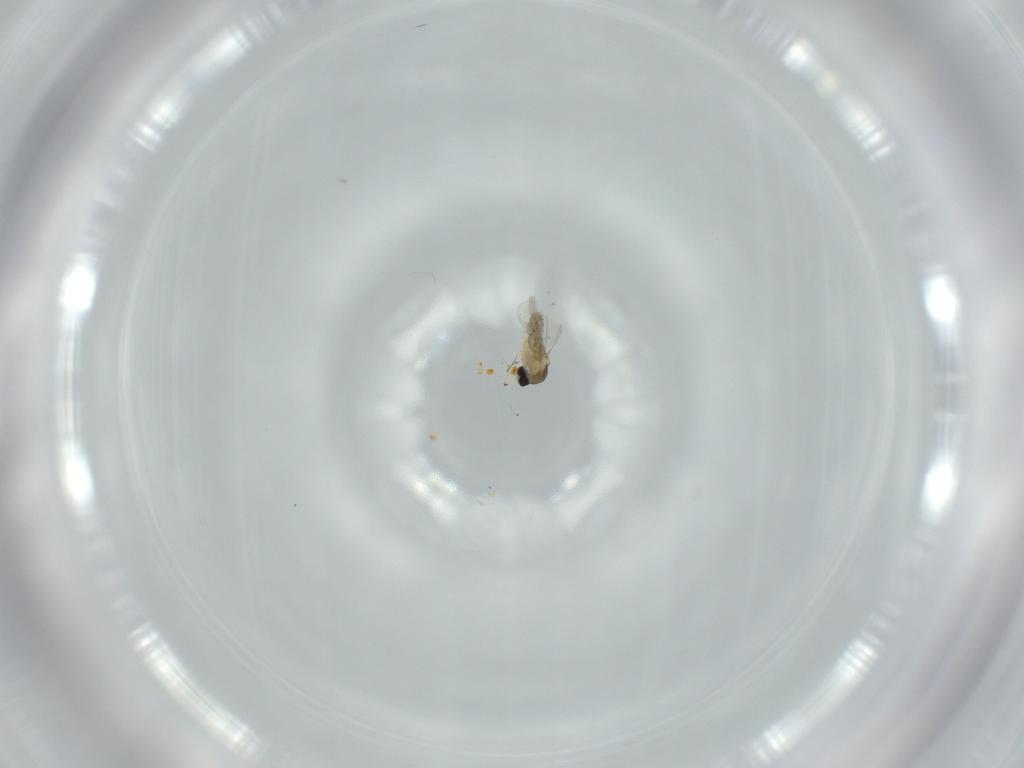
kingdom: Animalia
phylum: Arthropoda
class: Insecta
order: Diptera
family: Cecidomyiidae
